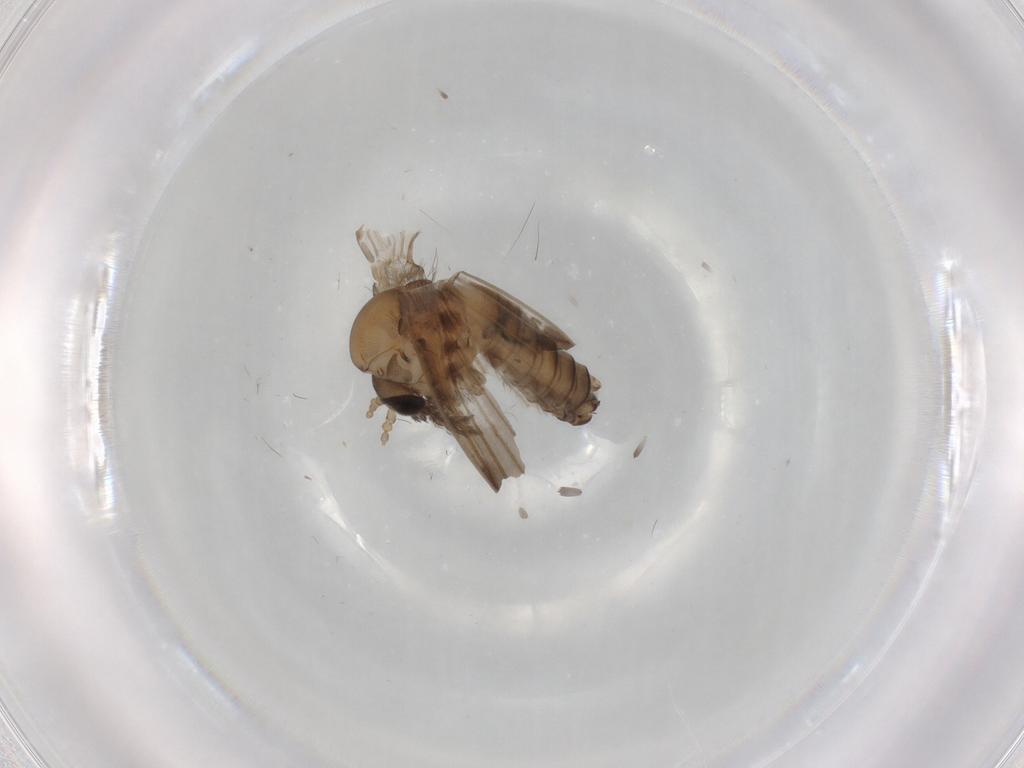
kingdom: Animalia
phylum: Arthropoda
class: Insecta
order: Diptera
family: Psychodidae
